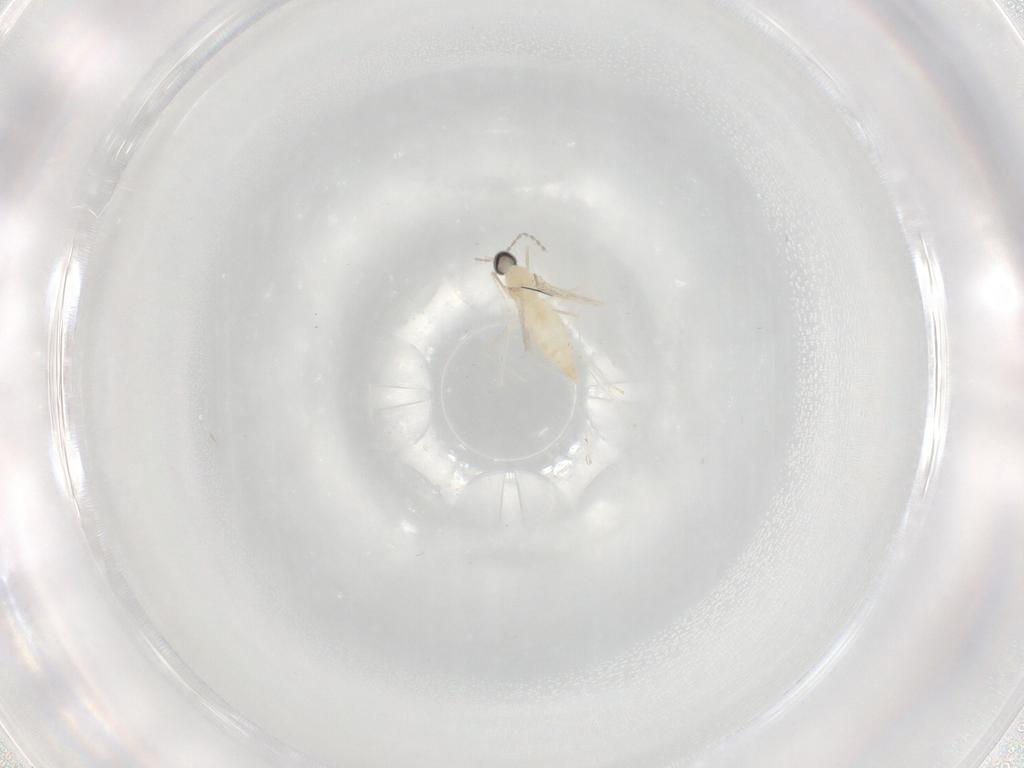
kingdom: Animalia
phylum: Arthropoda
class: Insecta
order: Diptera
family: Cecidomyiidae
